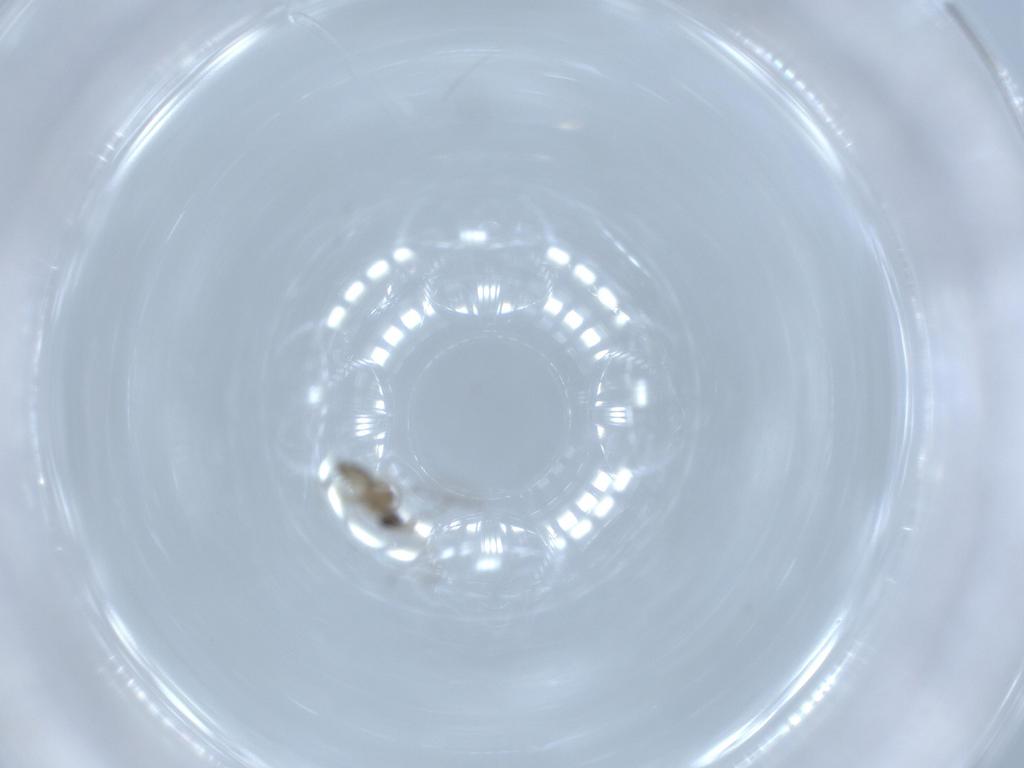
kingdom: Animalia
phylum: Arthropoda
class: Insecta
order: Diptera
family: Cecidomyiidae
